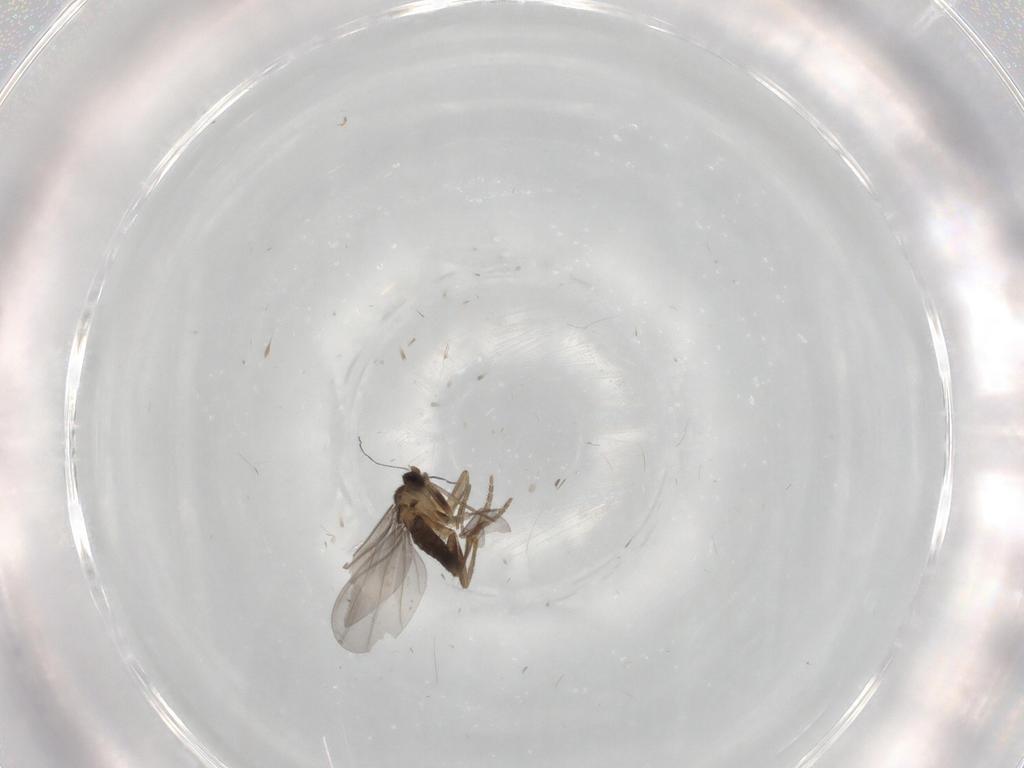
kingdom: Animalia
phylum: Arthropoda
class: Insecta
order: Diptera
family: Phoridae
